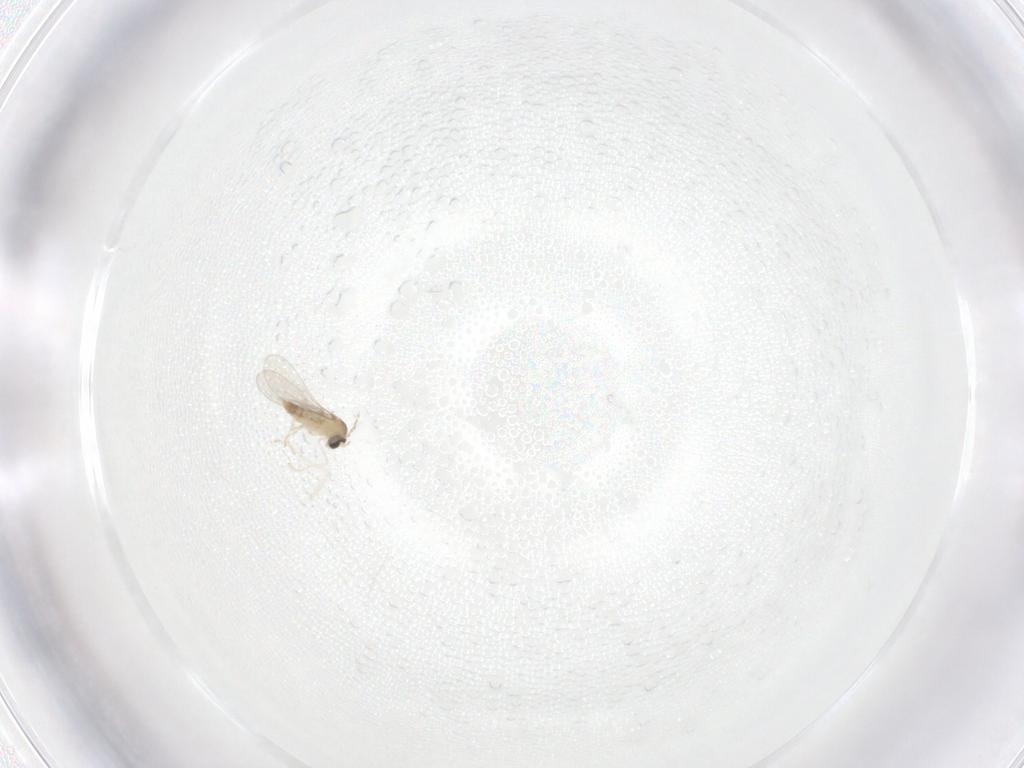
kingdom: Animalia
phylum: Arthropoda
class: Insecta
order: Diptera
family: Cecidomyiidae
